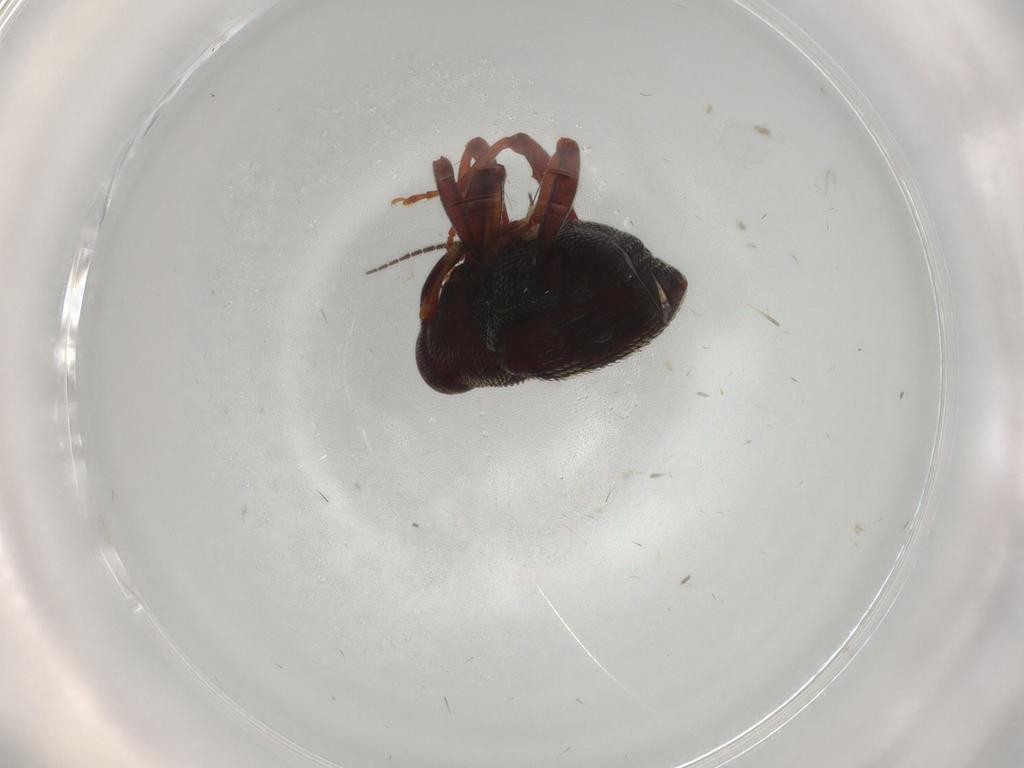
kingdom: Animalia
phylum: Arthropoda
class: Insecta
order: Coleoptera
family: Curculionidae
